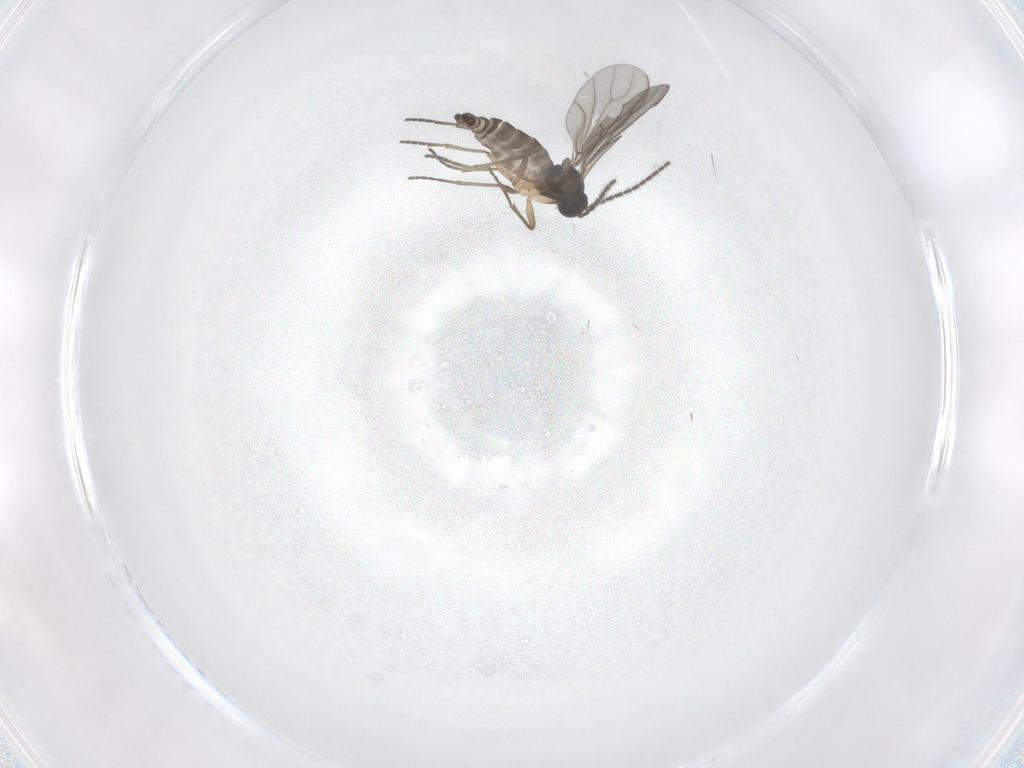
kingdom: Animalia
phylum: Arthropoda
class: Insecta
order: Diptera
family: Sciaridae
